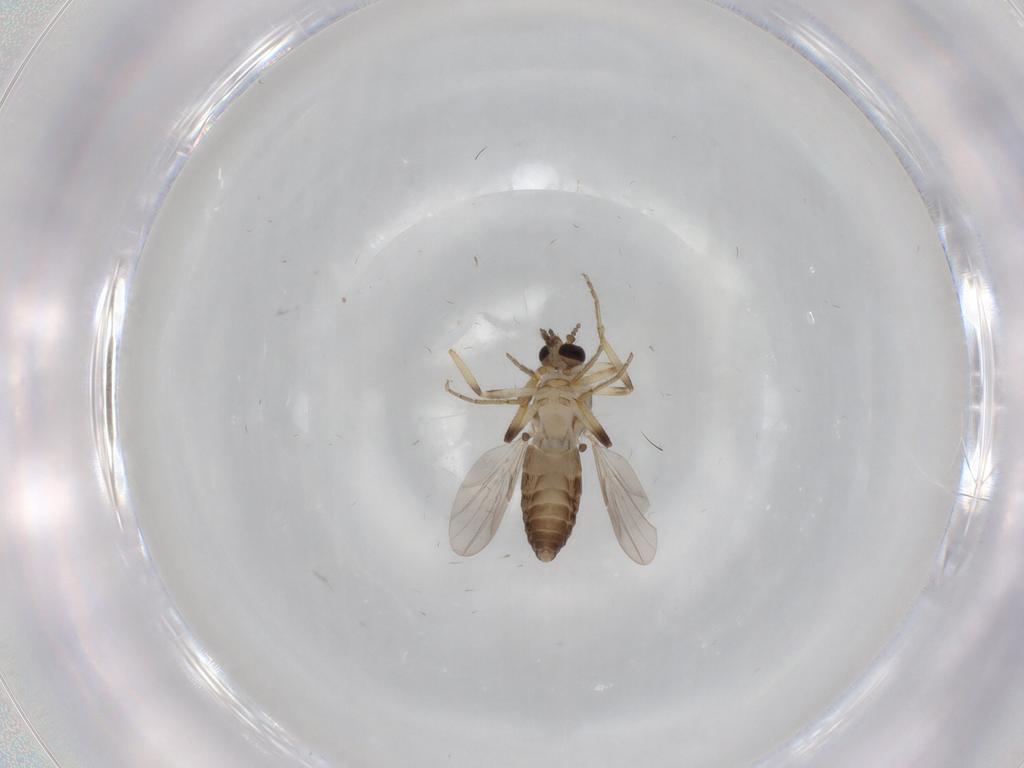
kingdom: Animalia
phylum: Arthropoda
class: Insecta
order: Diptera
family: Ceratopogonidae
